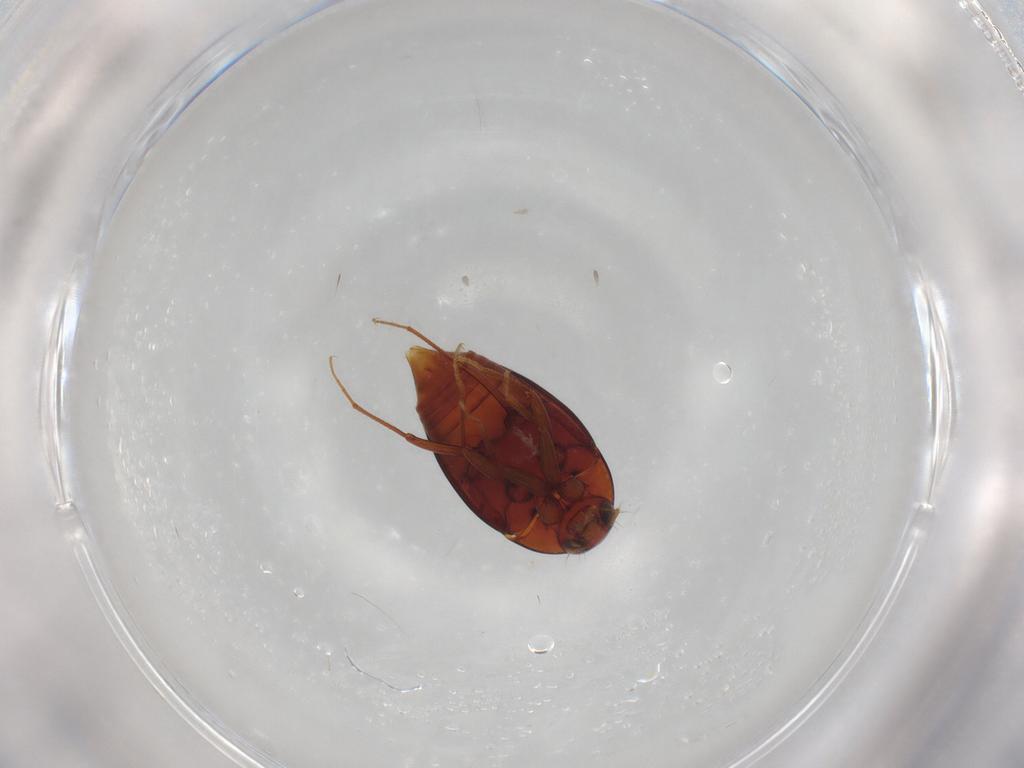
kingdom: Animalia
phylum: Arthropoda
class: Insecta
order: Coleoptera
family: Staphylinidae
